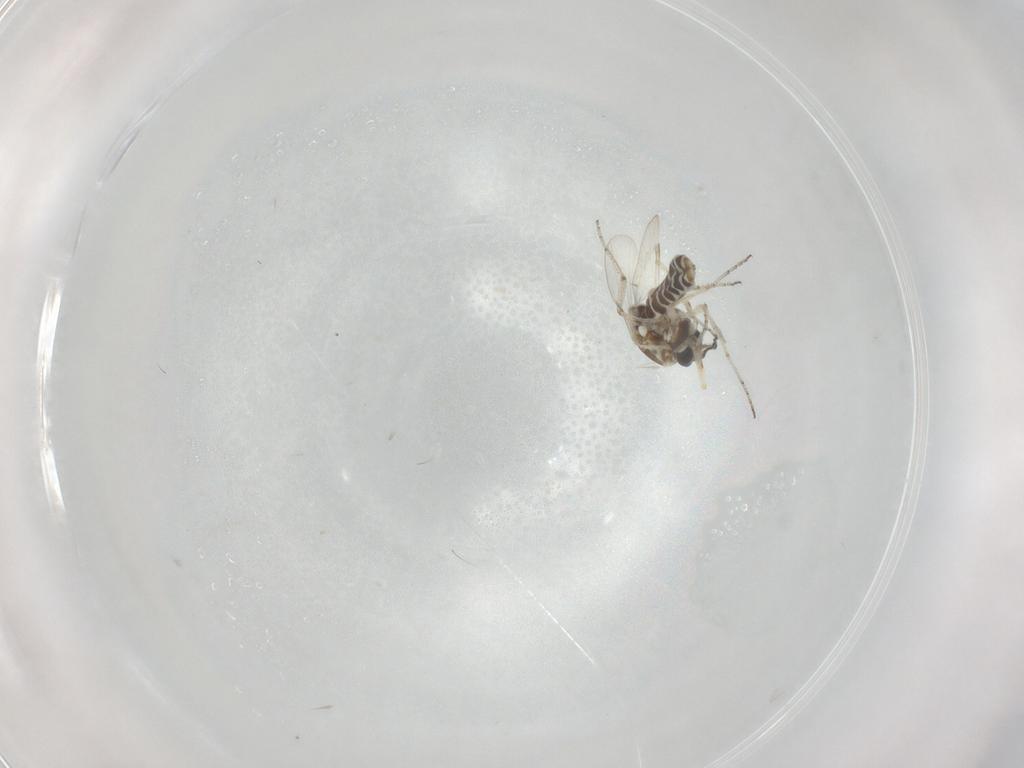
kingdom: Animalia
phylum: Arthropoda
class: Insecta
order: Diptera
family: Ceratopogonidae
